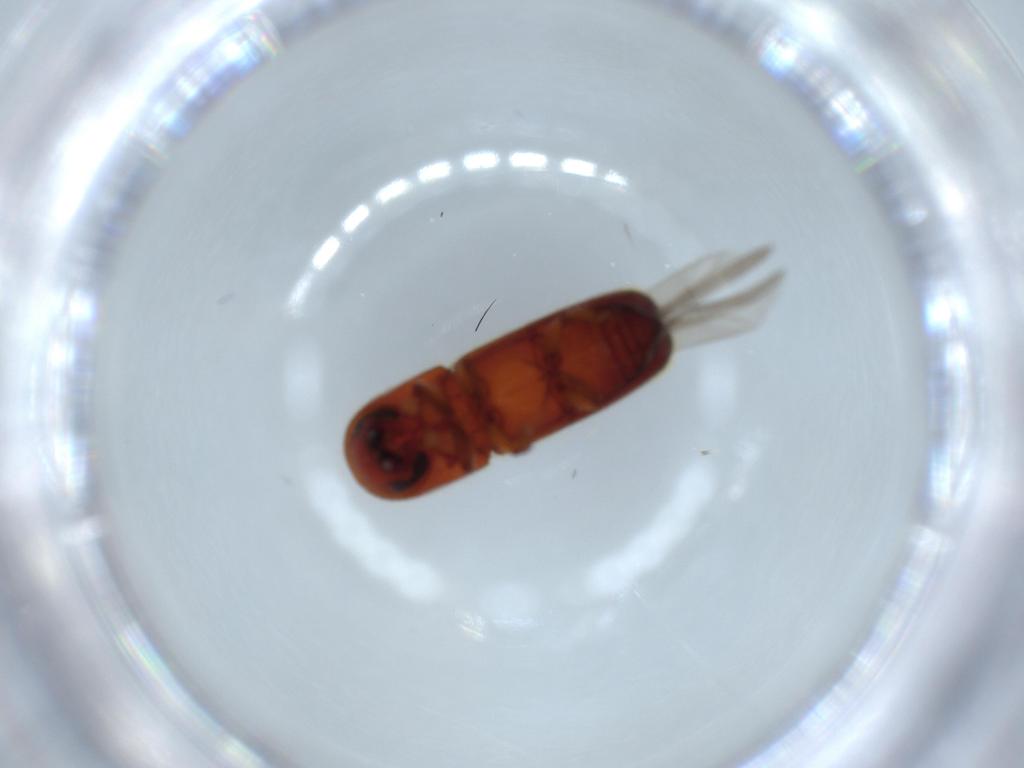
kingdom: Animalia
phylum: Arthropoda
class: Insecta
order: Coleoptera
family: Curculionidae
